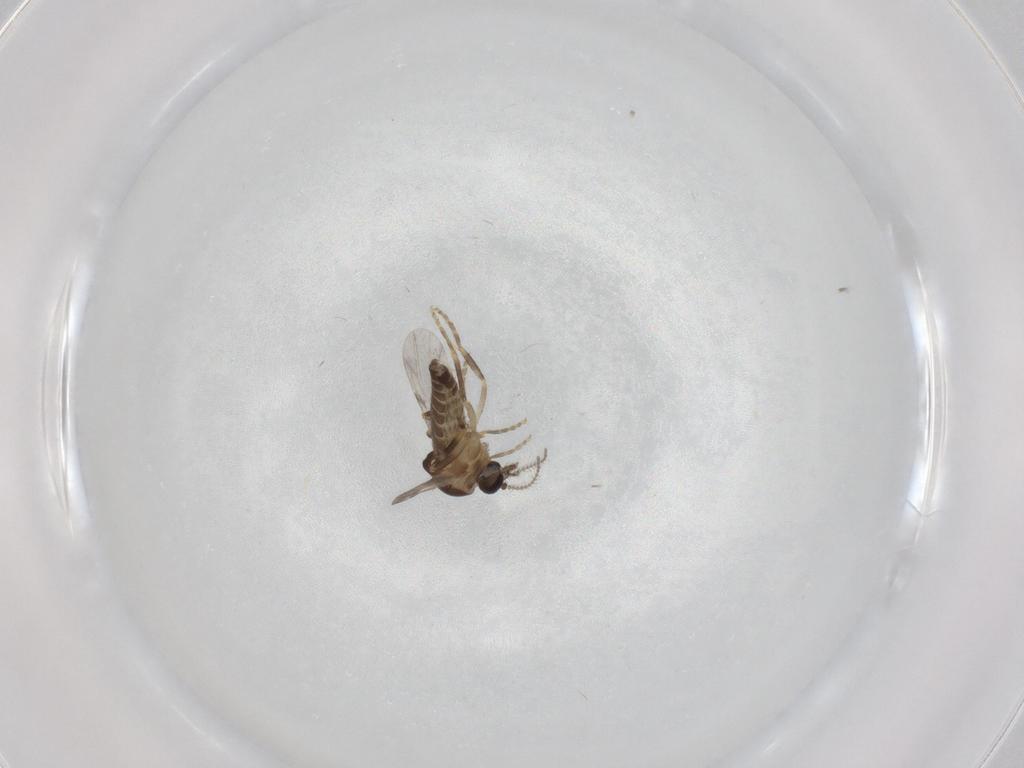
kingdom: Animalia
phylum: Arthropoda
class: Insecta
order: Diptera
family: Ceratopogonidae
